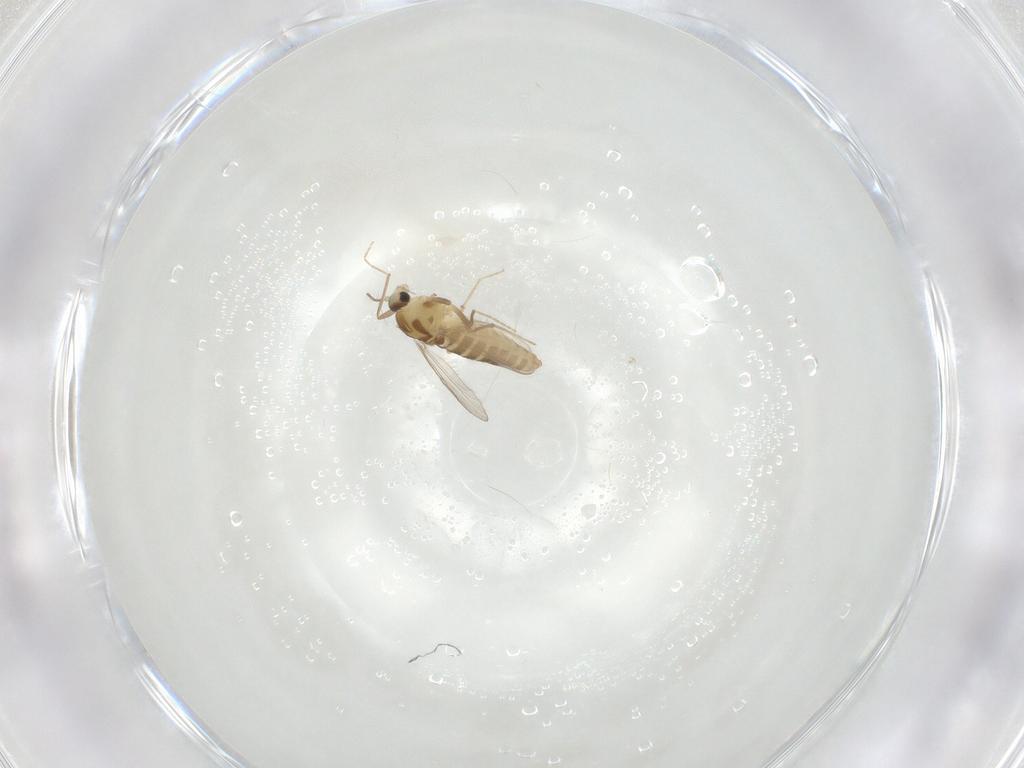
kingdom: Animalia
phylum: Arthropoda
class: Insecta
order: Diptera
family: Chironomidae
